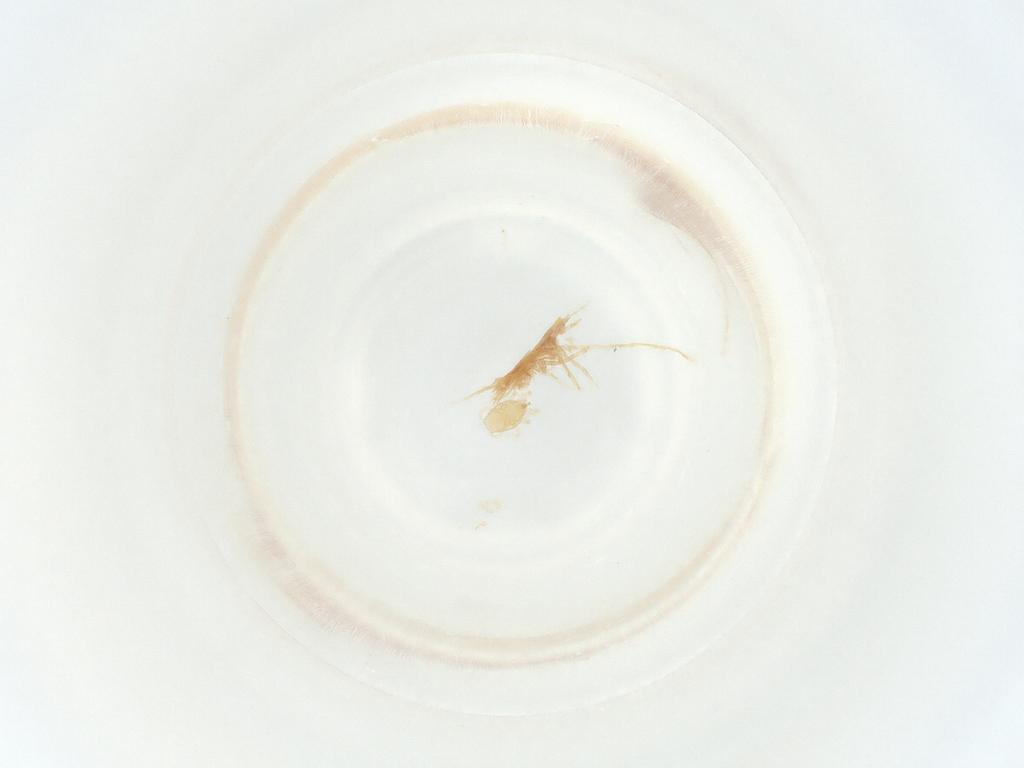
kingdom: Animalia
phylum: Arthropoda
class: Arachnida
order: Mesostigmata
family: Phytoseiidae
